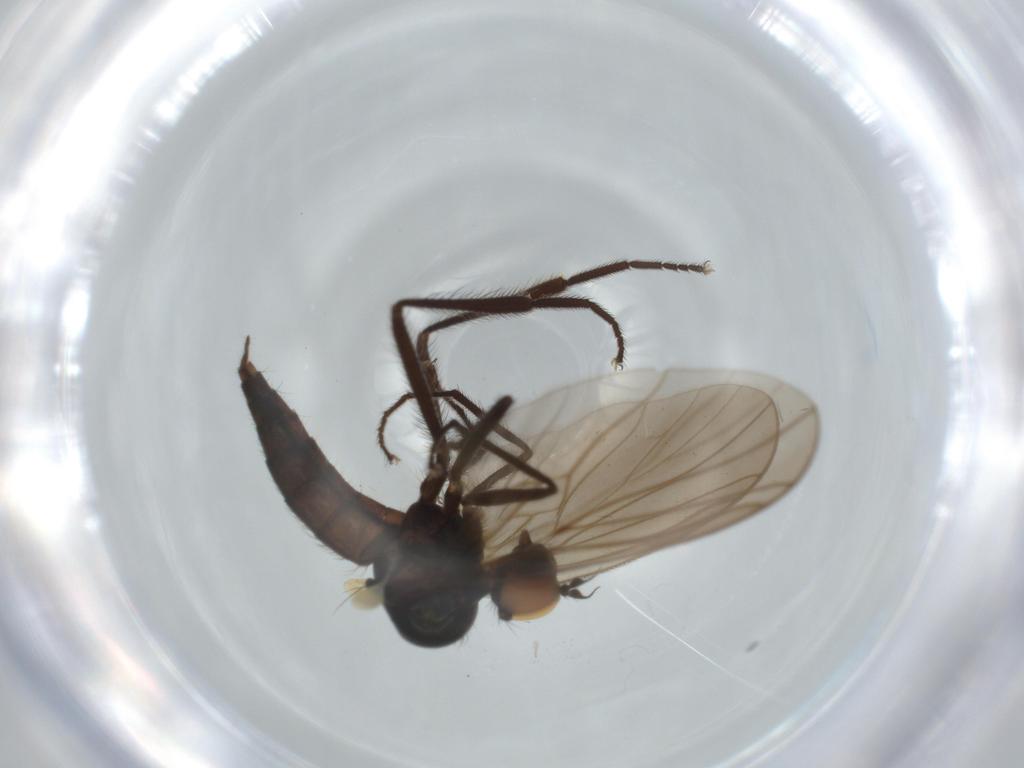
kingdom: Animalia
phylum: Arthropoda
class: Insecta
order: Diptera
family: Hybotidae
